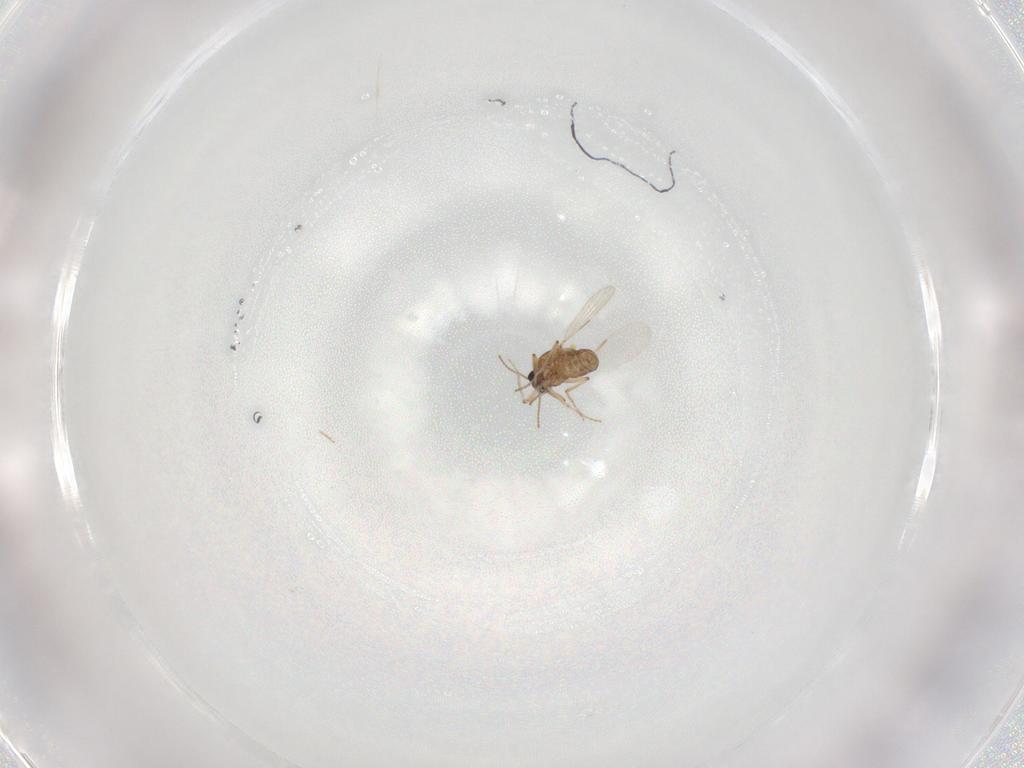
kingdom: Animalia
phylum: Arthropoda
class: Insecta
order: Diptera
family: Ceratopogonidae
